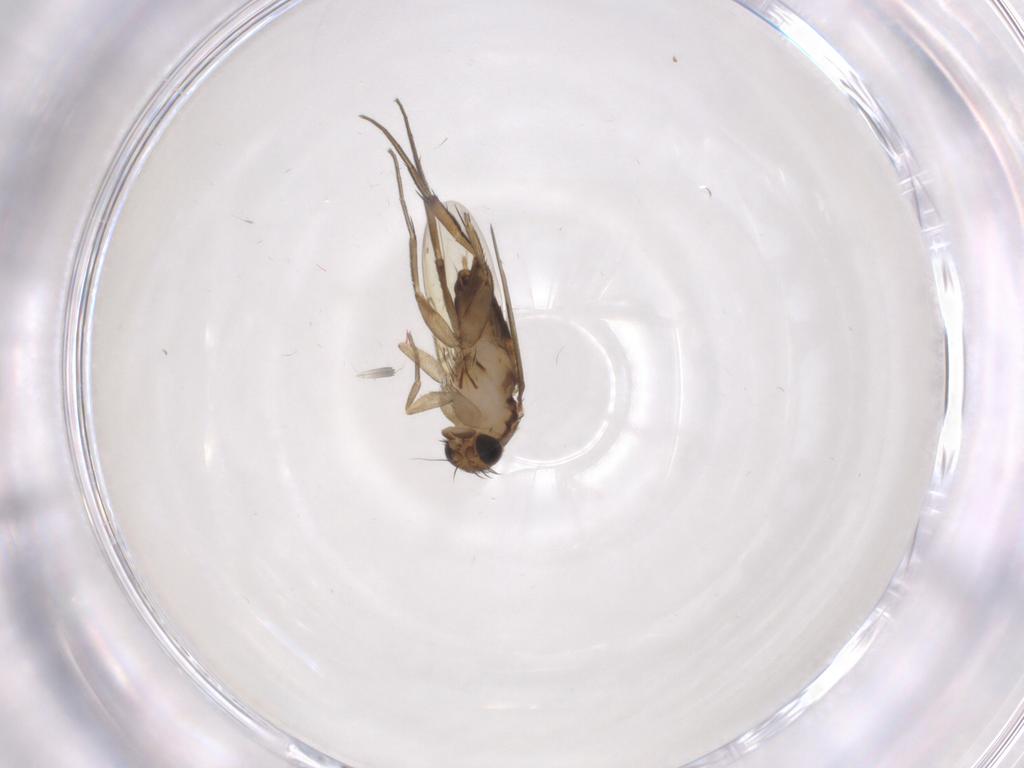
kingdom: Animalia
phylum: Arthropoda
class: Insecta
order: Diptera
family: Phoridae
